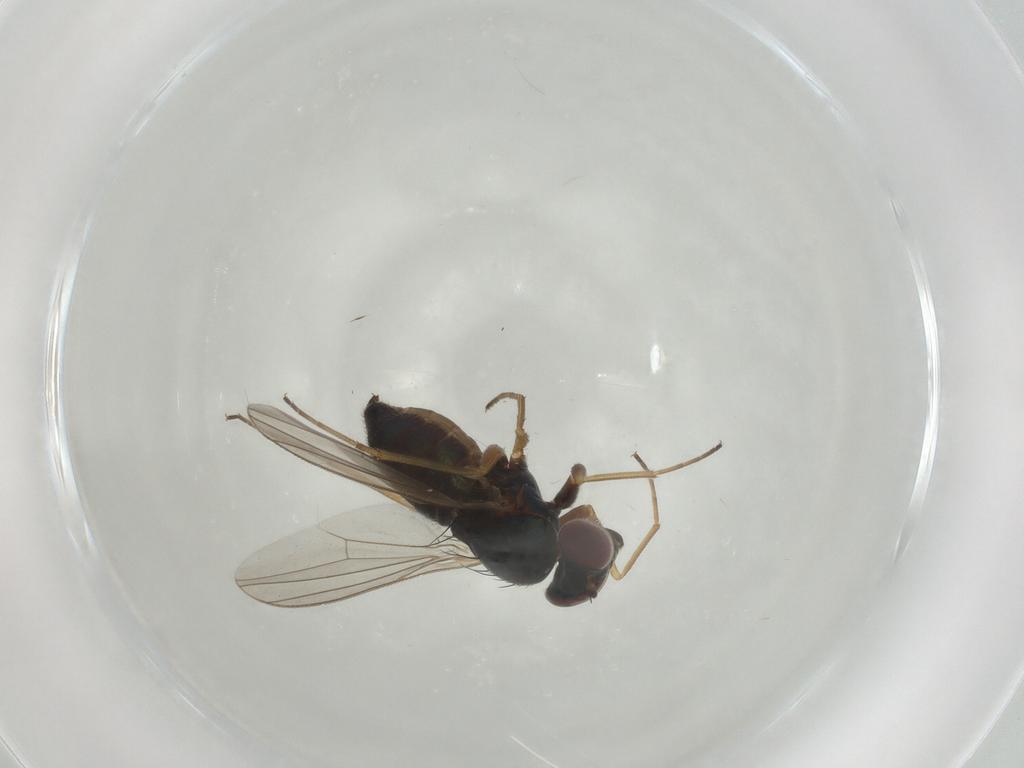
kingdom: Animalia
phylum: Arthropoda
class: Insecta
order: Diptera
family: Dolichopodidae
